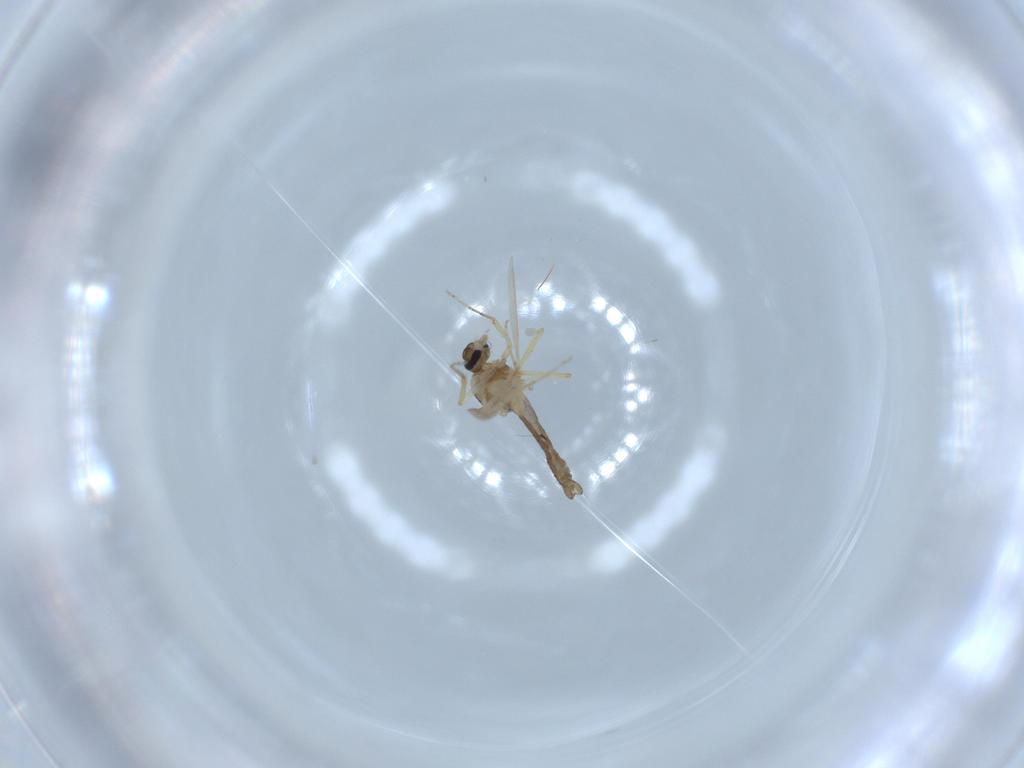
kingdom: Animalia
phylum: Arthropoda
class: Insecta
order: Diptera
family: Ceratopogonidae
